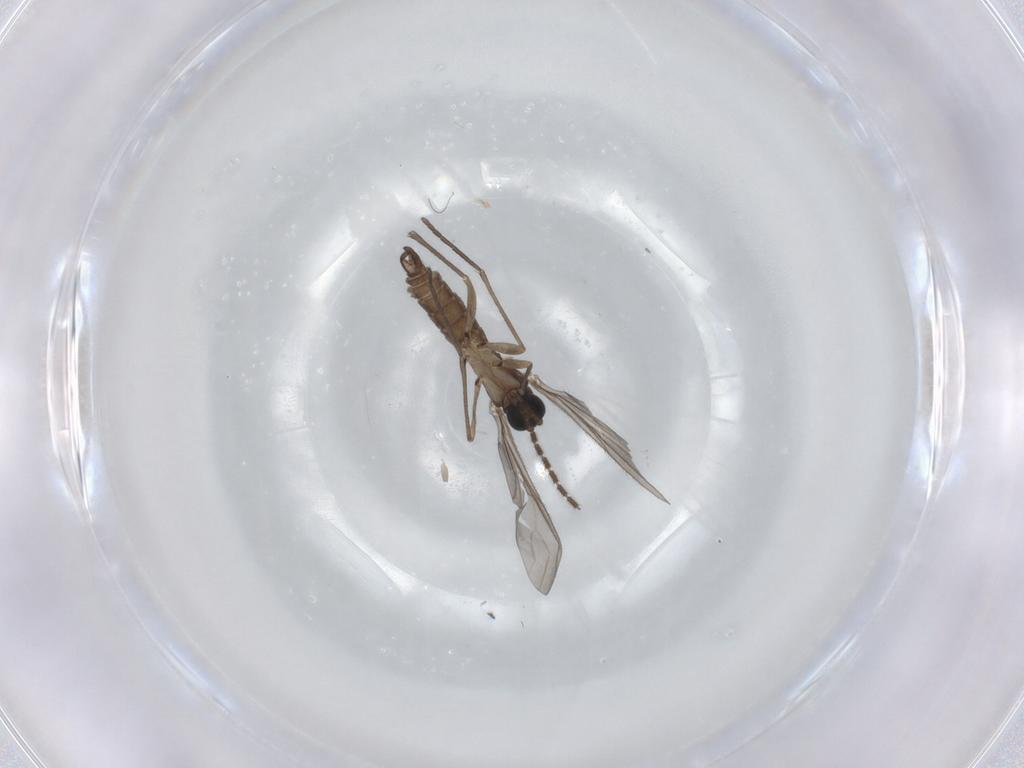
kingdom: Animalia
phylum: Arthropoda
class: Insecta
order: Diptera
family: Sciaridae
